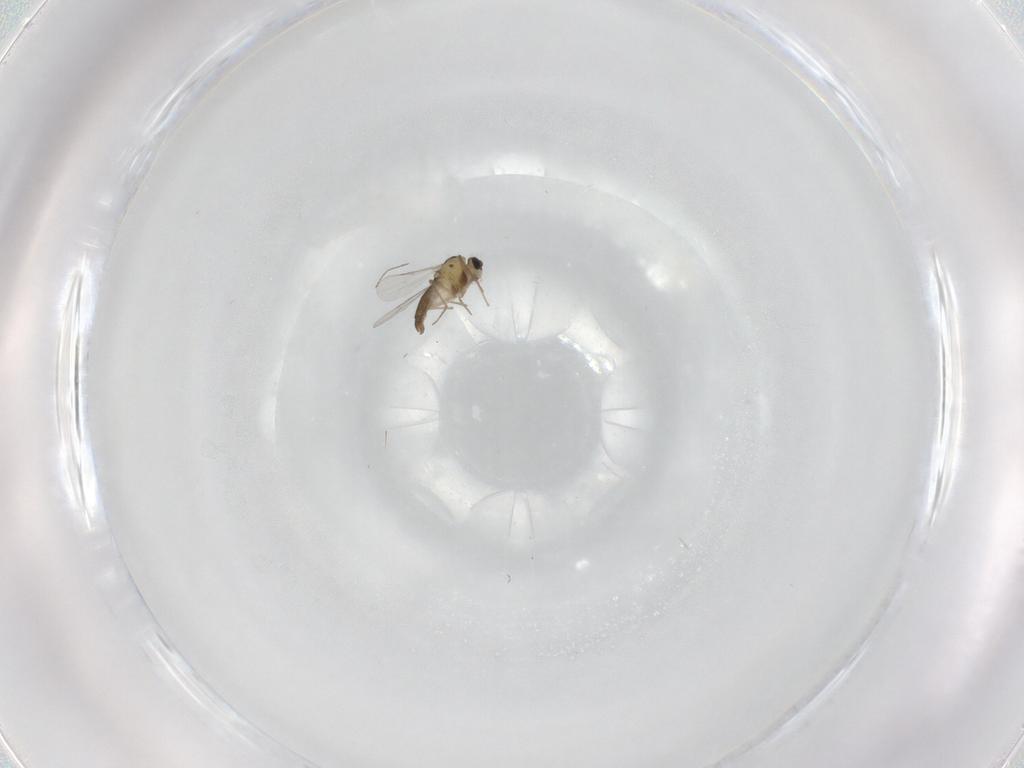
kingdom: Animalia
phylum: Arthropoda
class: Insecta
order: Diptera
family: Chironomidae
